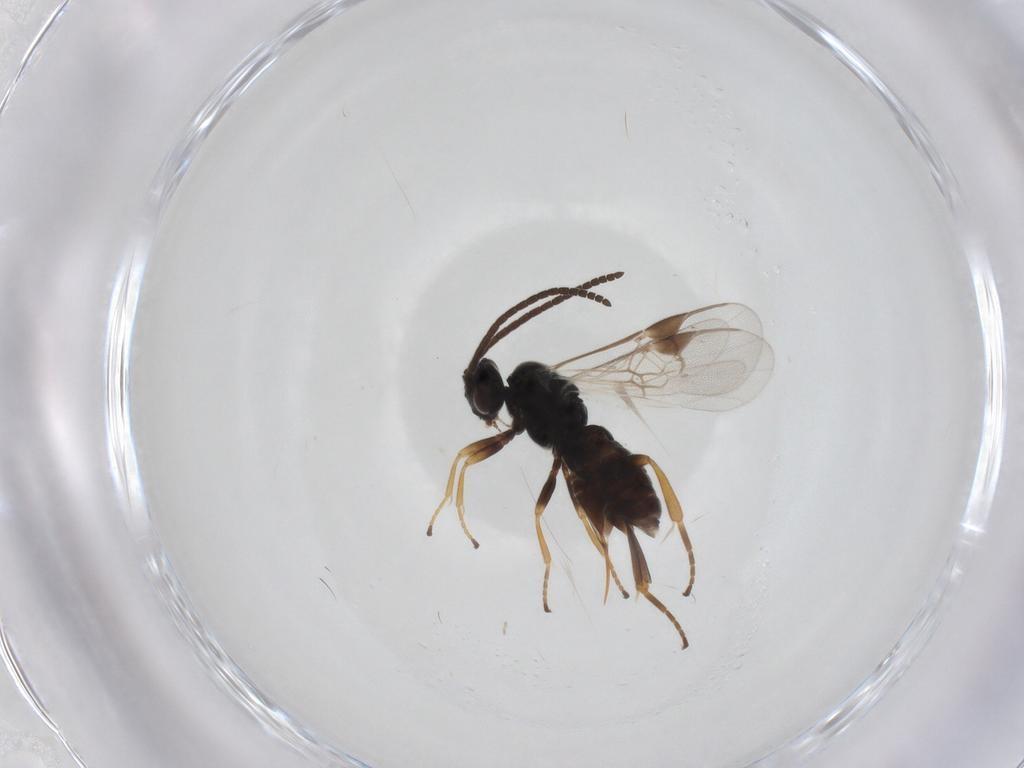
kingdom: Animalia
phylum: Arthropoda
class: Insecta
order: Hymenoptera
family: Braconidae
